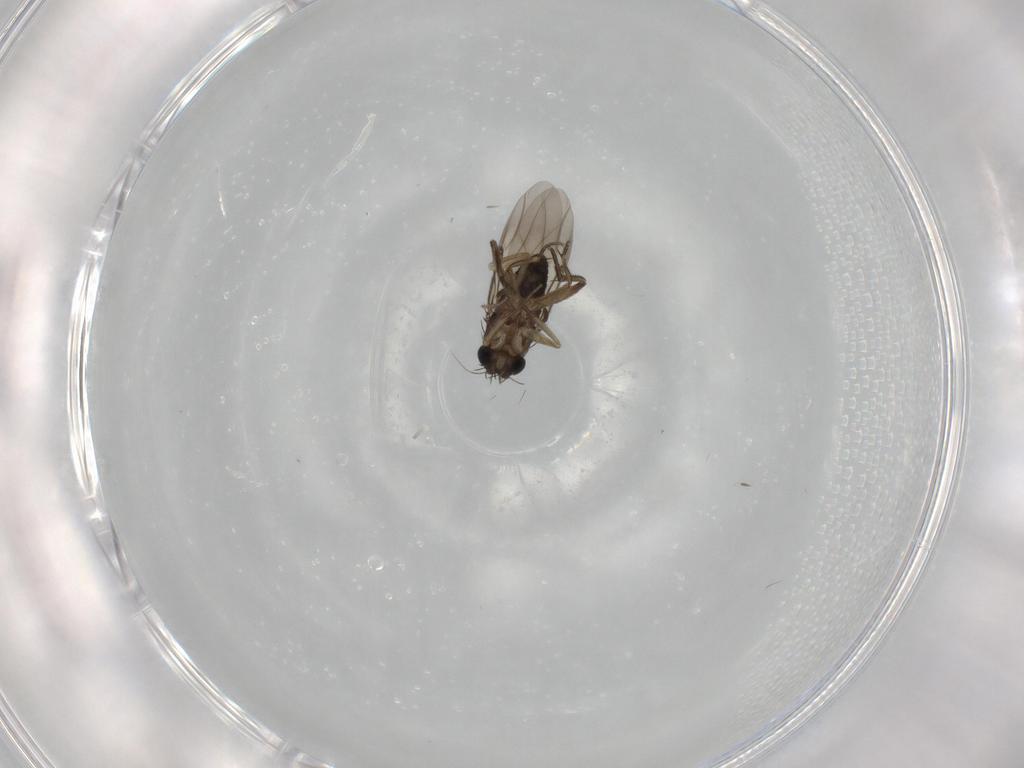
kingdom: Animalia
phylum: Arthropoda
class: Insecta
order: Diptera
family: Phoridae
